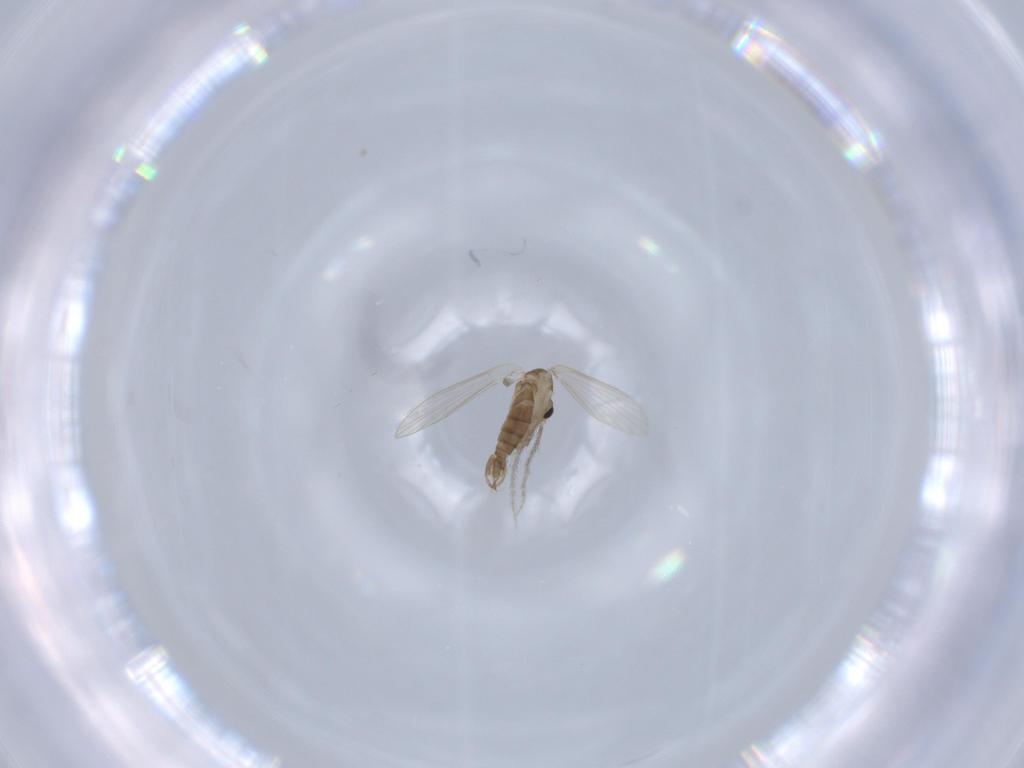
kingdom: Animalia
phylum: Arthropoda
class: Insecta
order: Diptera
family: Psychodidae
